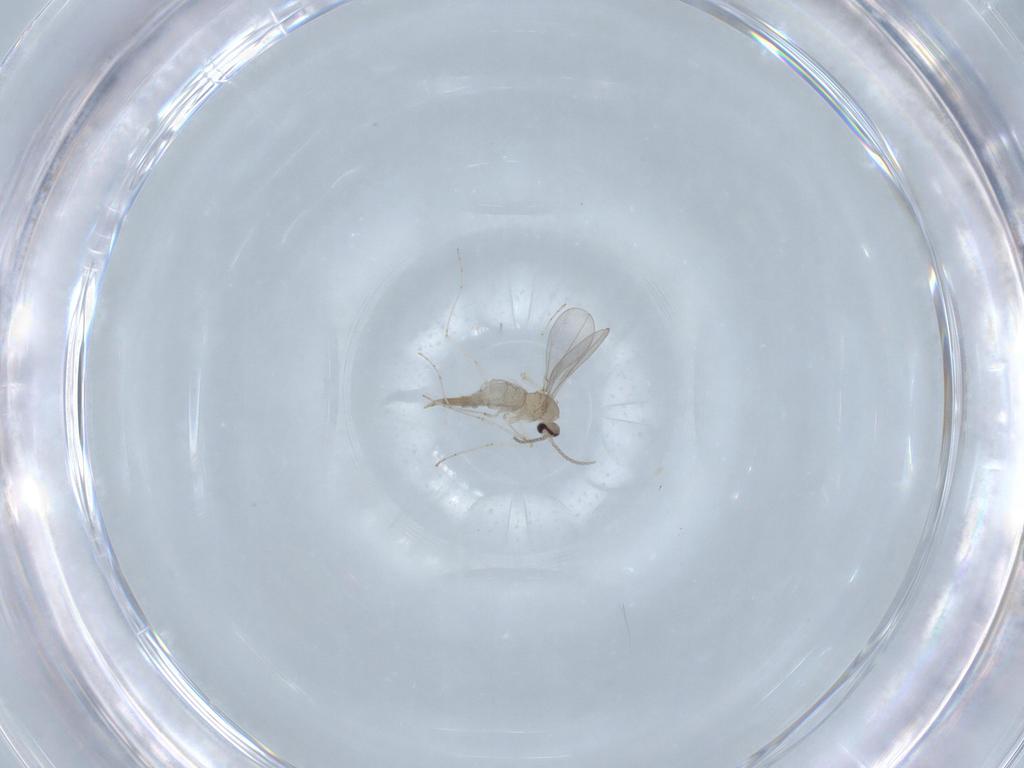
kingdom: Animalia
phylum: Arthropoda
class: Insecta
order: Diptera
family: Cecidomyiidae
